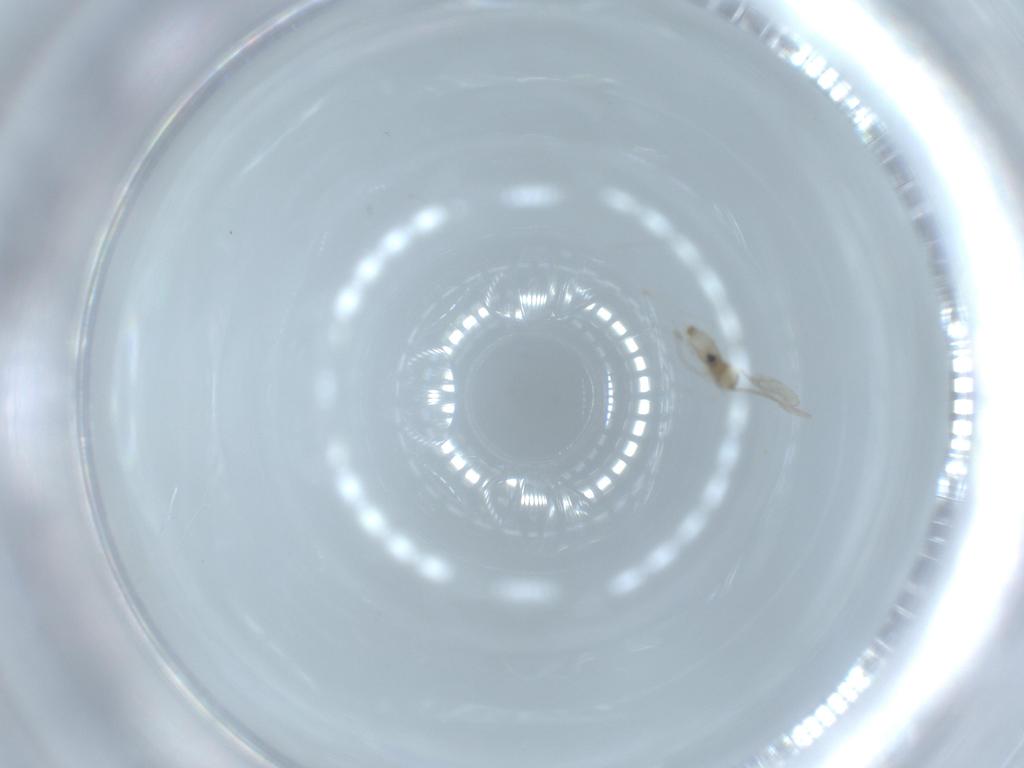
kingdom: Animalia
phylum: Arthropoda
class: Insecta
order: Diptera
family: Cecidomyiidae
